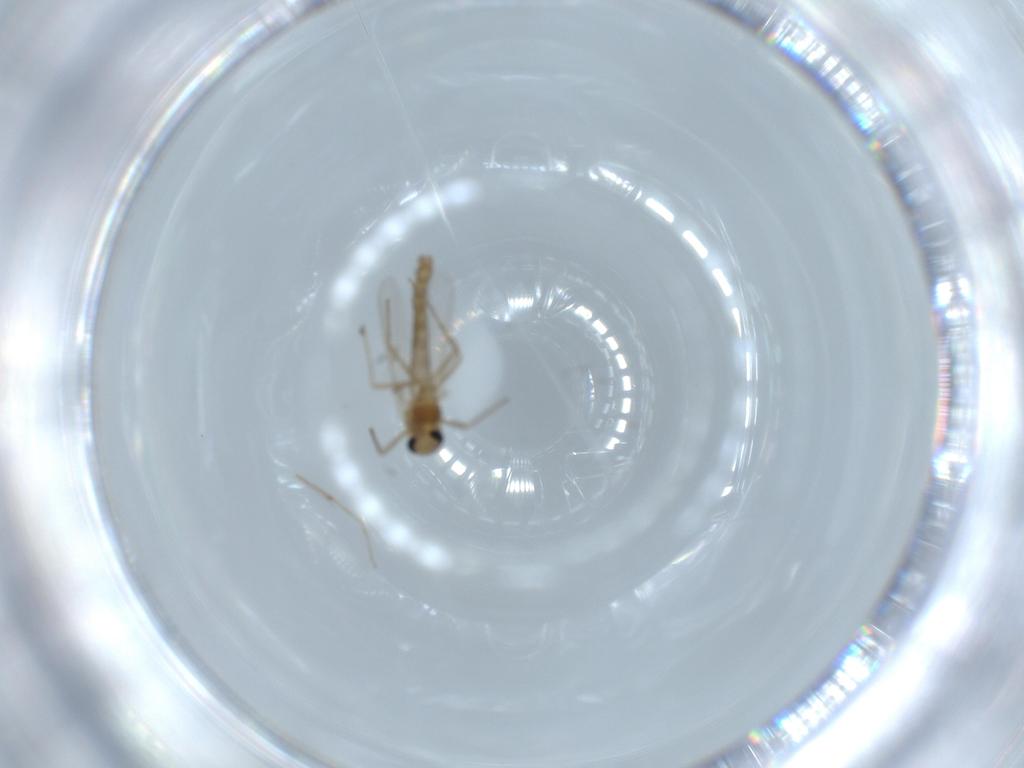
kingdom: Animalia
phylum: Arthropoda
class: Insecta
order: Diptera
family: Chironomidae
